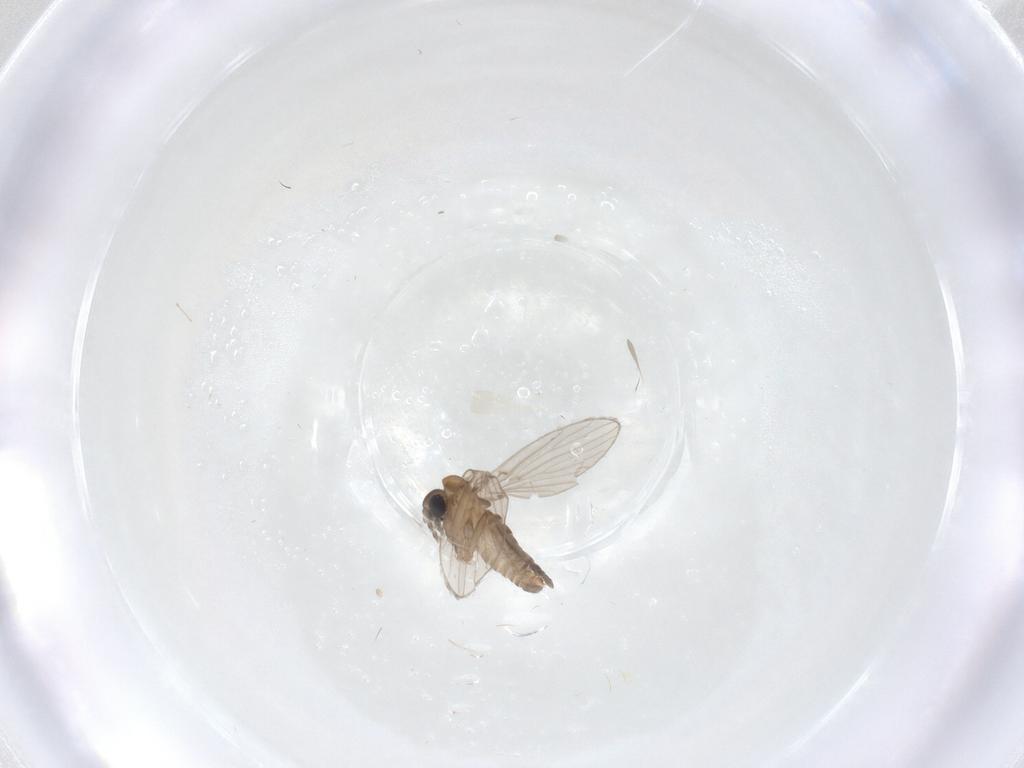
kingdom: Animalia
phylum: Arthropoda
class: Insecta
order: Diptera
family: Cecidomyiidae
